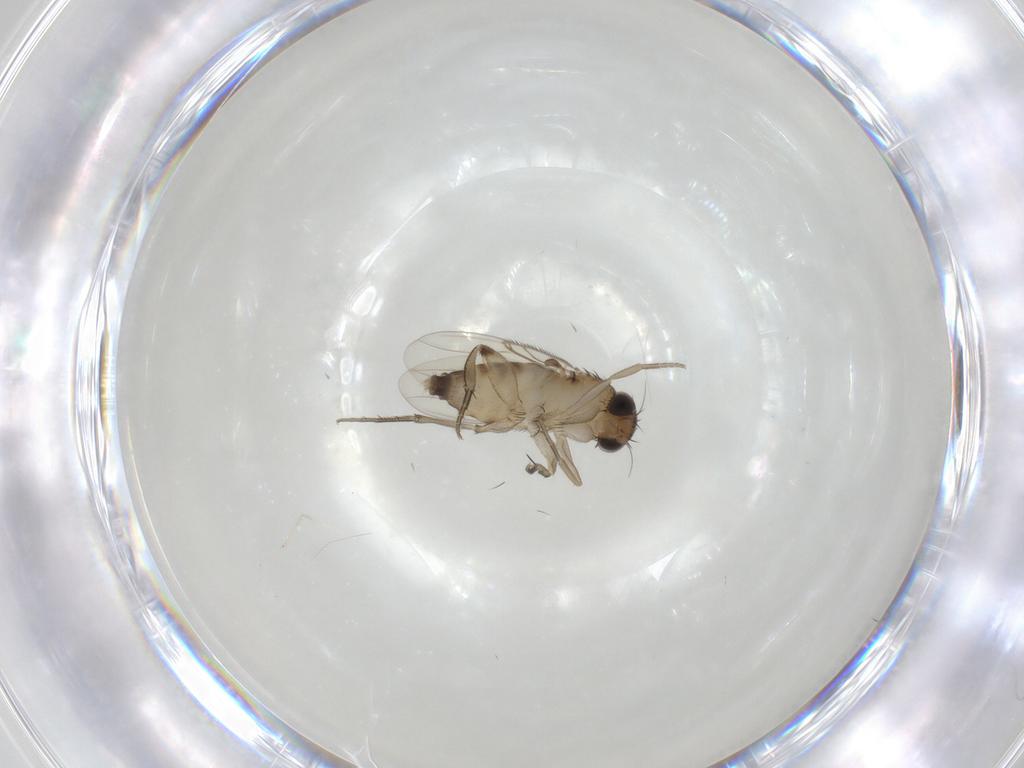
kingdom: Animalia
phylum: Arthropoda
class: Insecta
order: Diptera
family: Phoridae
